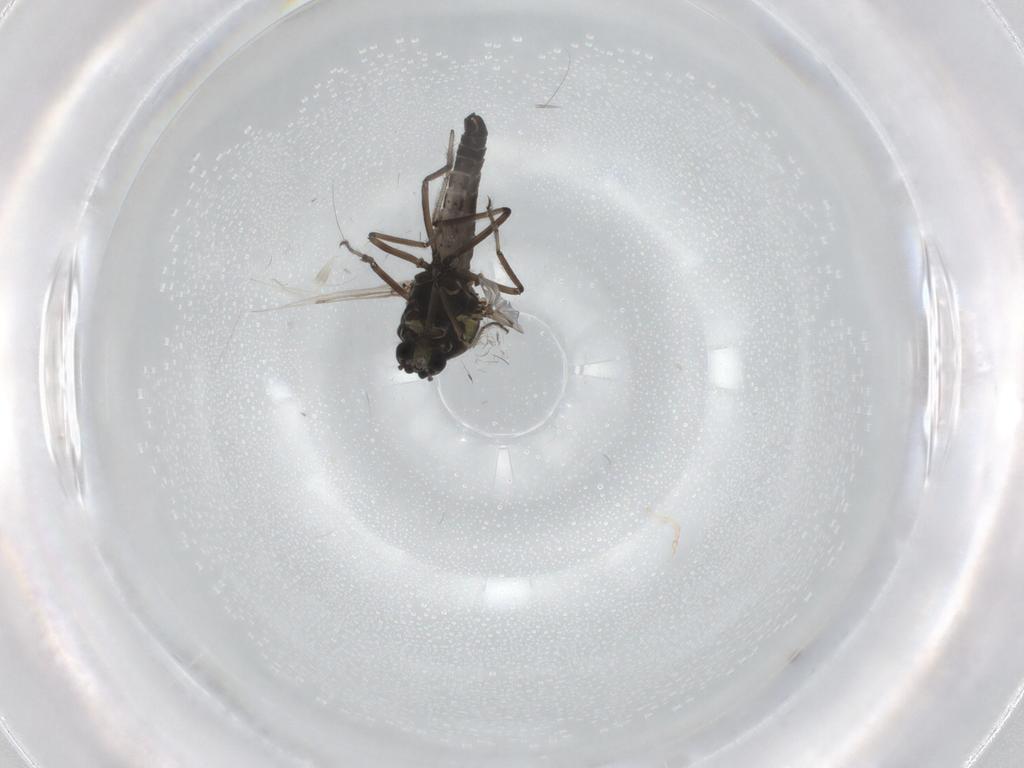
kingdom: Animalia
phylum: Arthropoda
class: Insecta
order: Diptera
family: Ceratopogonidae
